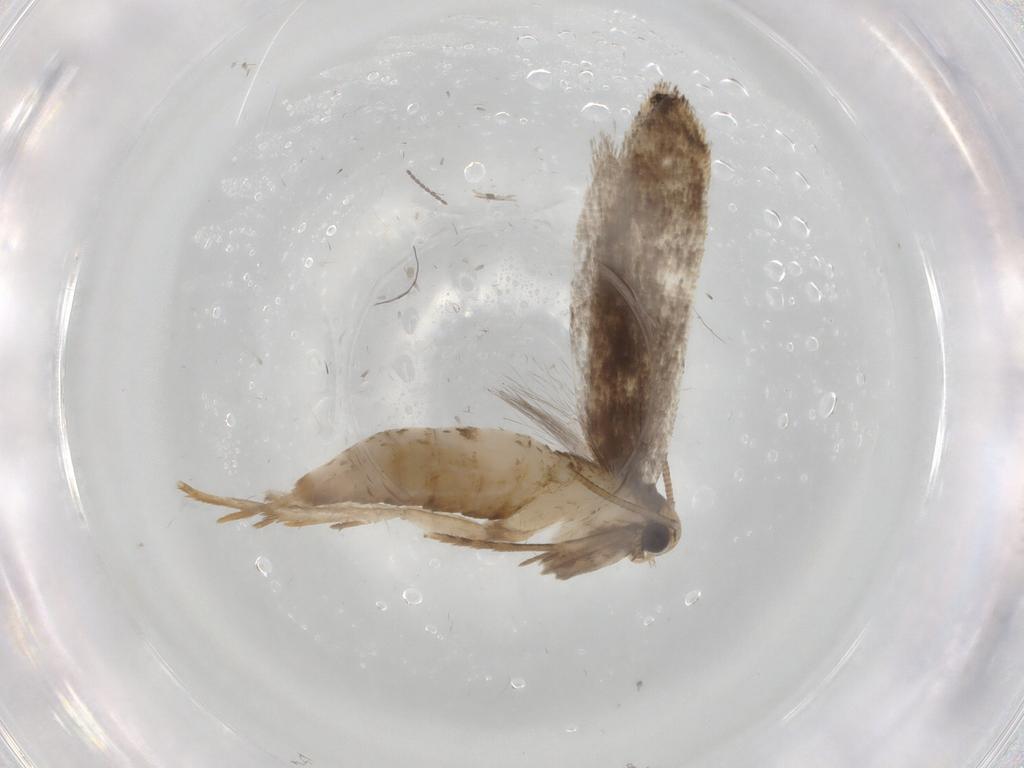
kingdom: Animalia
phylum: Arthropoda
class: Insecta
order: Lepidoptera
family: Tineidae
